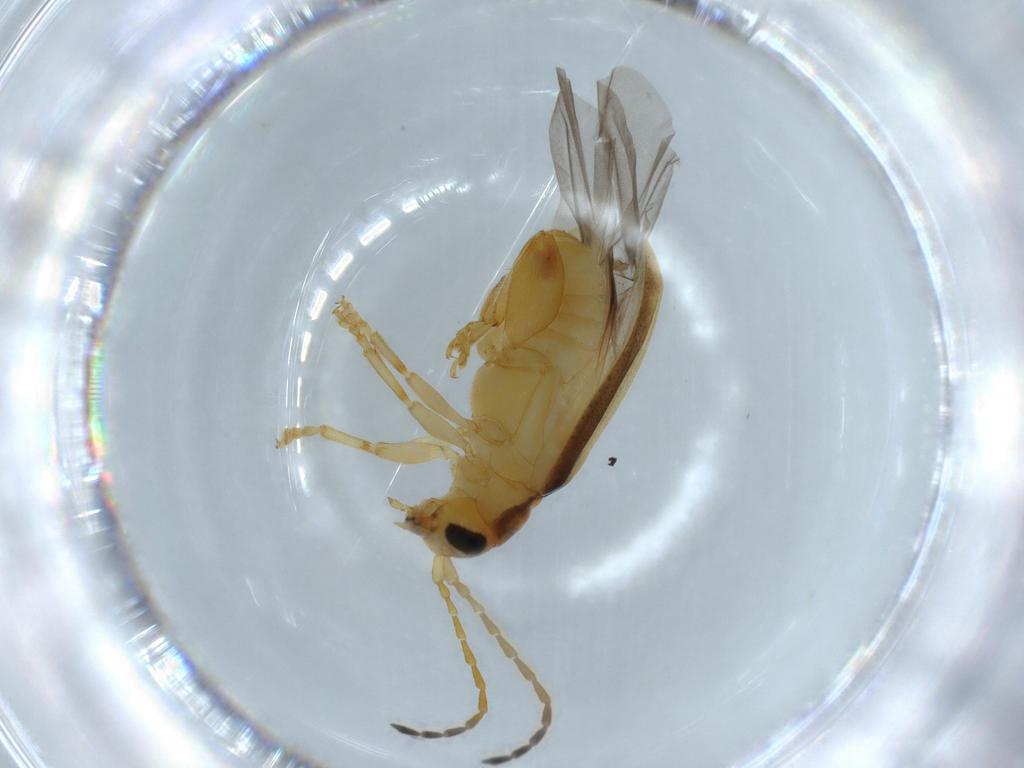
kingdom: Animalia
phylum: Arthropoda
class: Insecta
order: Coleoptera
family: Chrysomelidae
